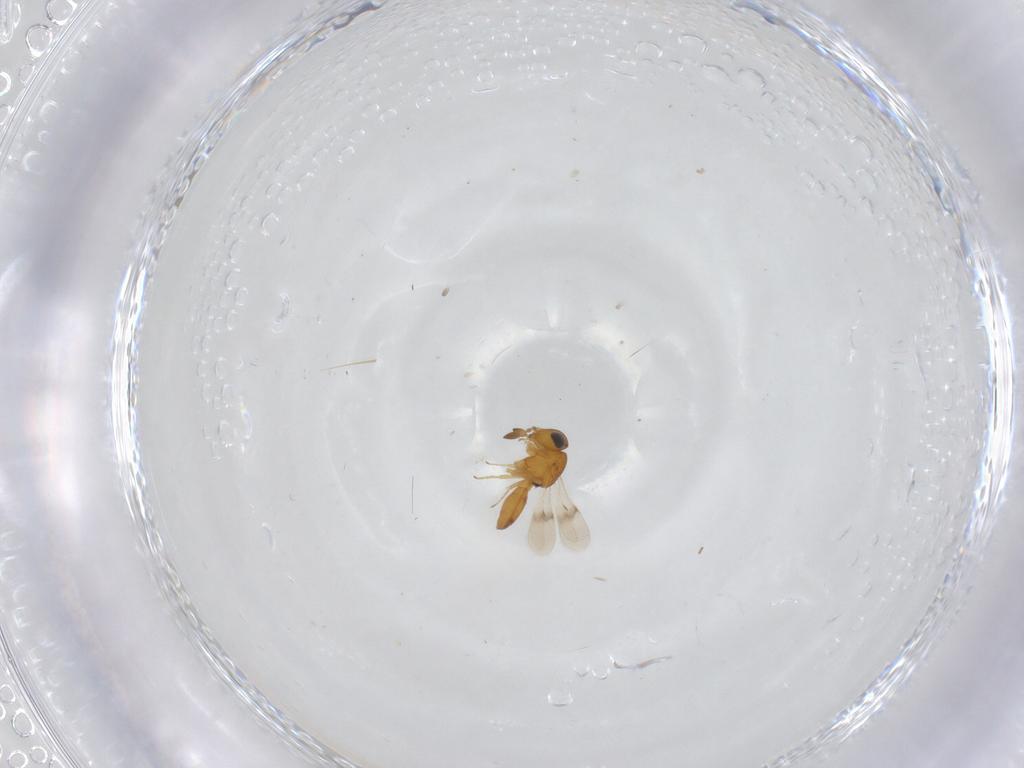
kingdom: Animalia
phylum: Arthropoda
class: Insecta
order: Hymenoptera
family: Scelionidae
